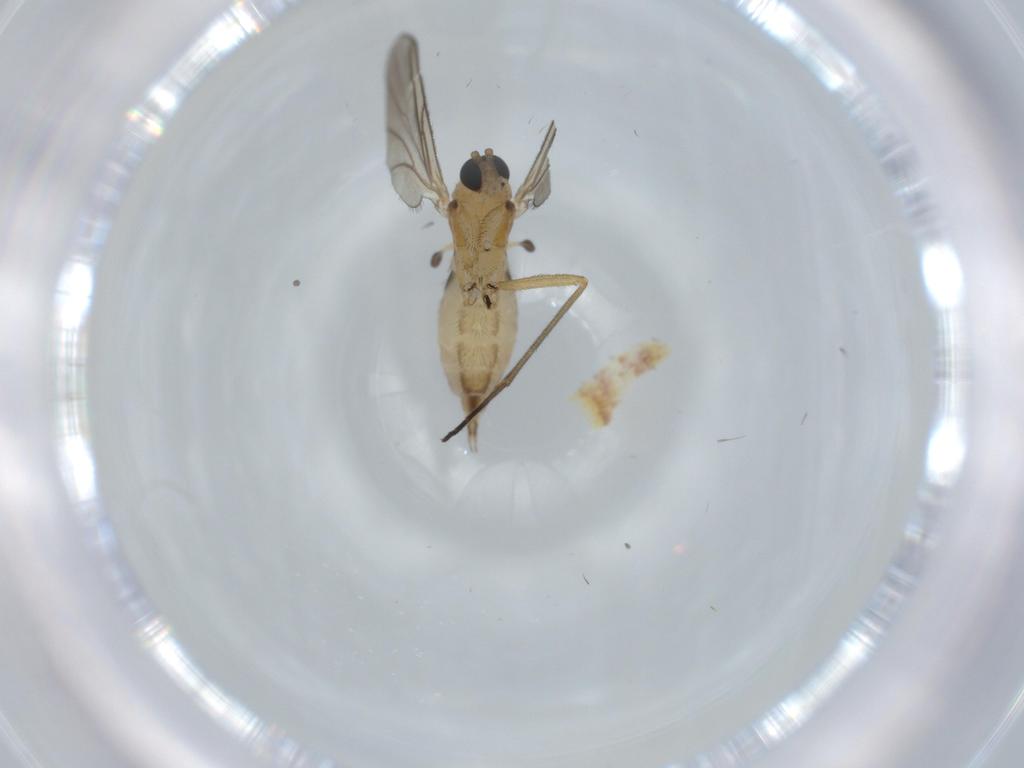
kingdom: Animalia
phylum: Arthropoda
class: Insecta
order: Diptera
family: Sciaridae
